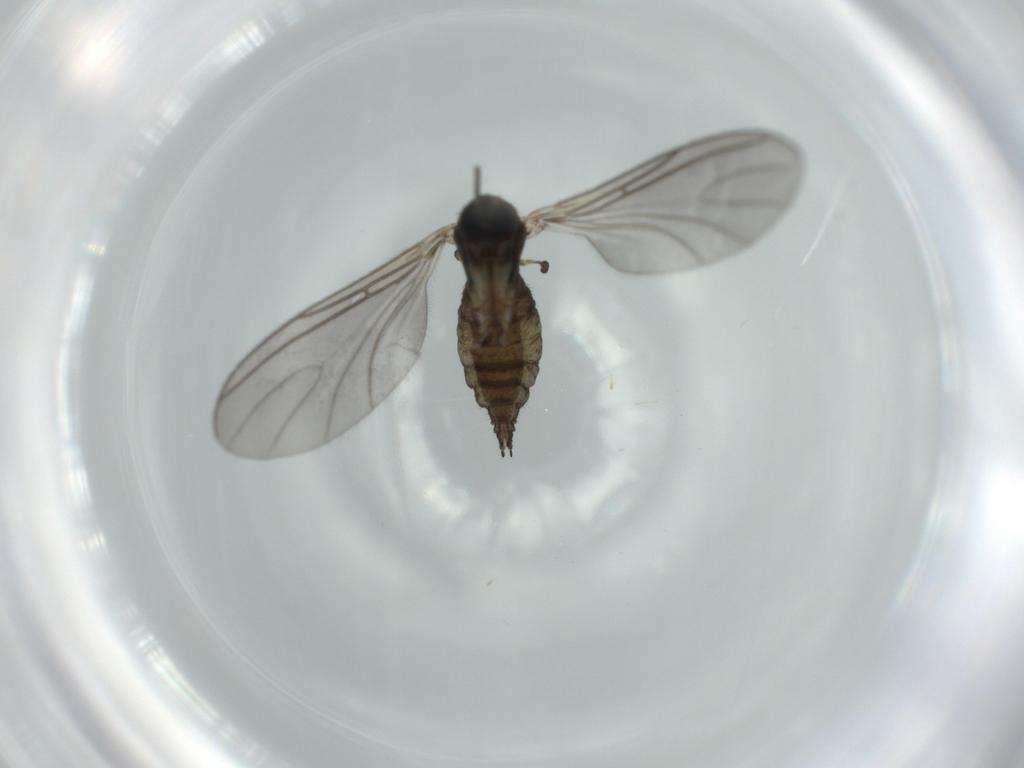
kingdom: Animalia
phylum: Arthropoda
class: Insecta
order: Diptera
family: Sciaridae
